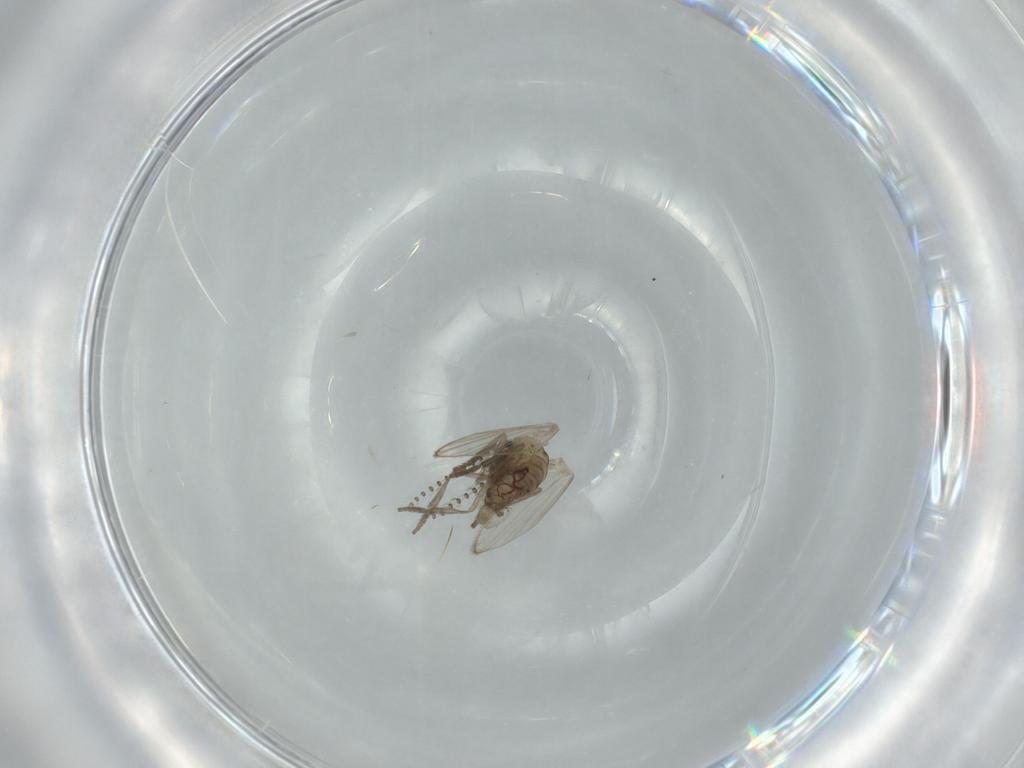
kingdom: Animalia
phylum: Arthropoda
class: Insecta
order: Diptera
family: Psychodidae
